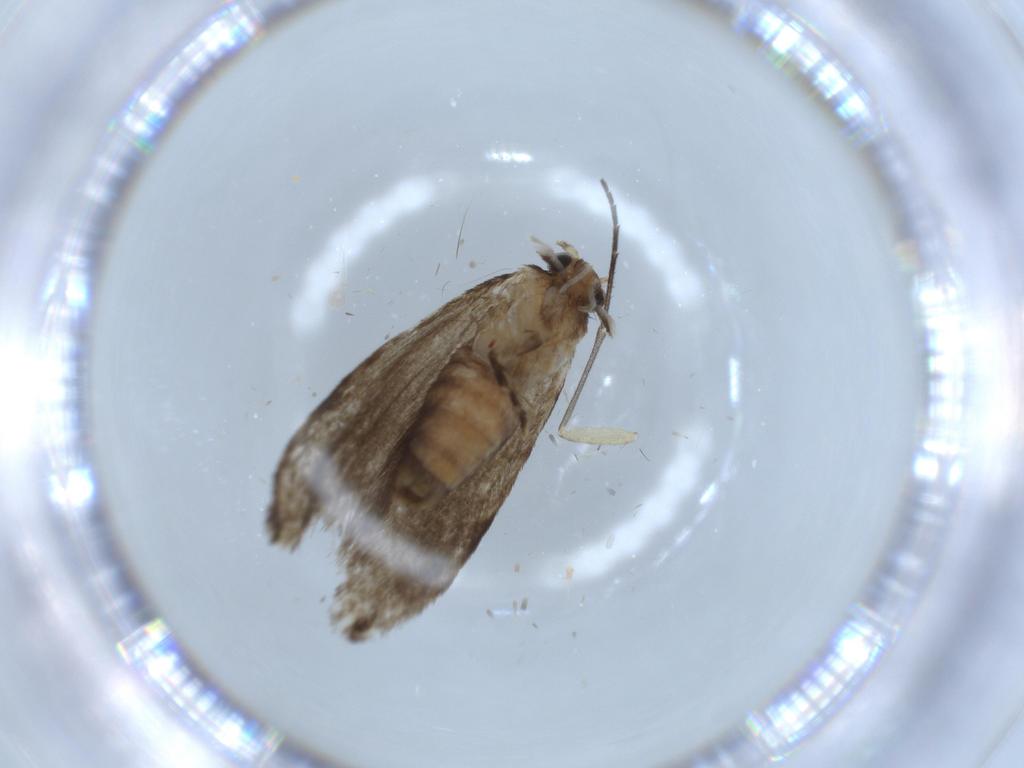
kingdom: Animalia
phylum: Arthropoda
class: Insecta
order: Lepidoptera
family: Tineidae
